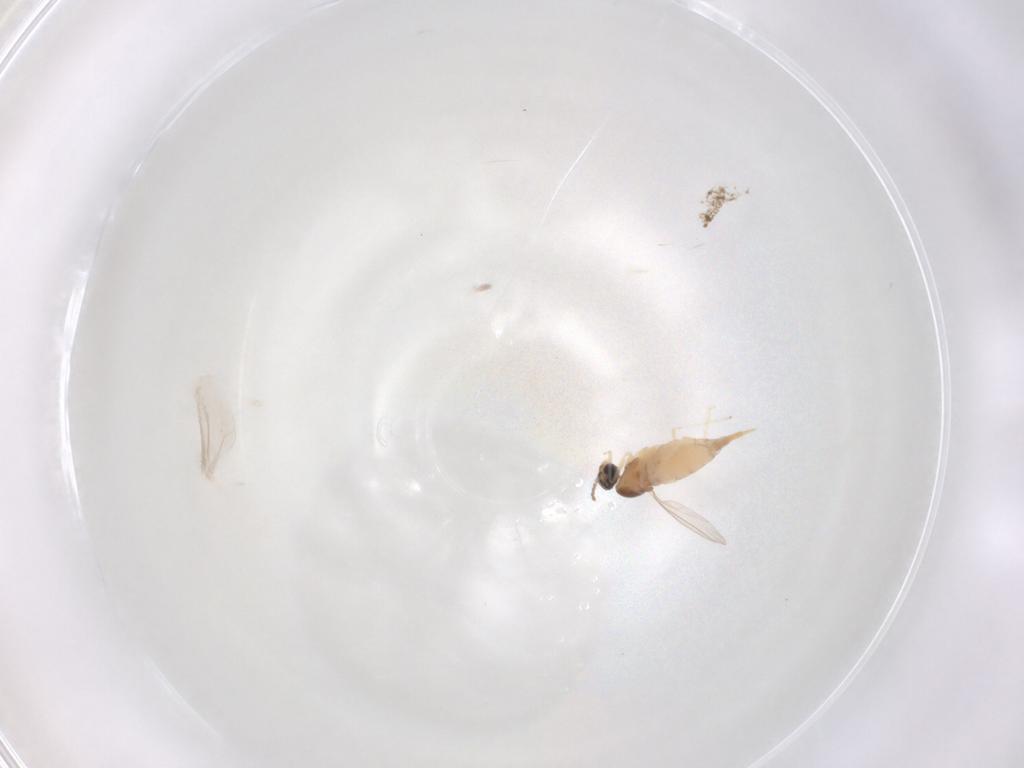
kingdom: Animalia
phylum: Arthropoda
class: Insecta
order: Diptera
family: Cecidomyiidae
